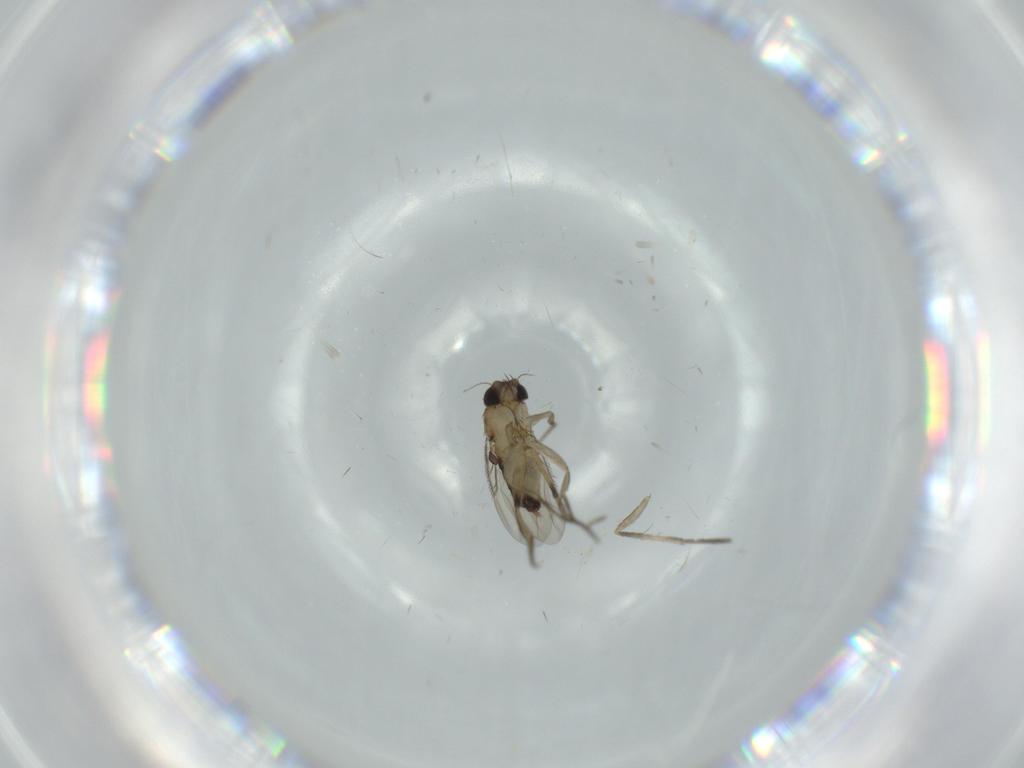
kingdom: Animalia
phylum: Arthropoda
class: Insecta
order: Diptera
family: Phoridae
